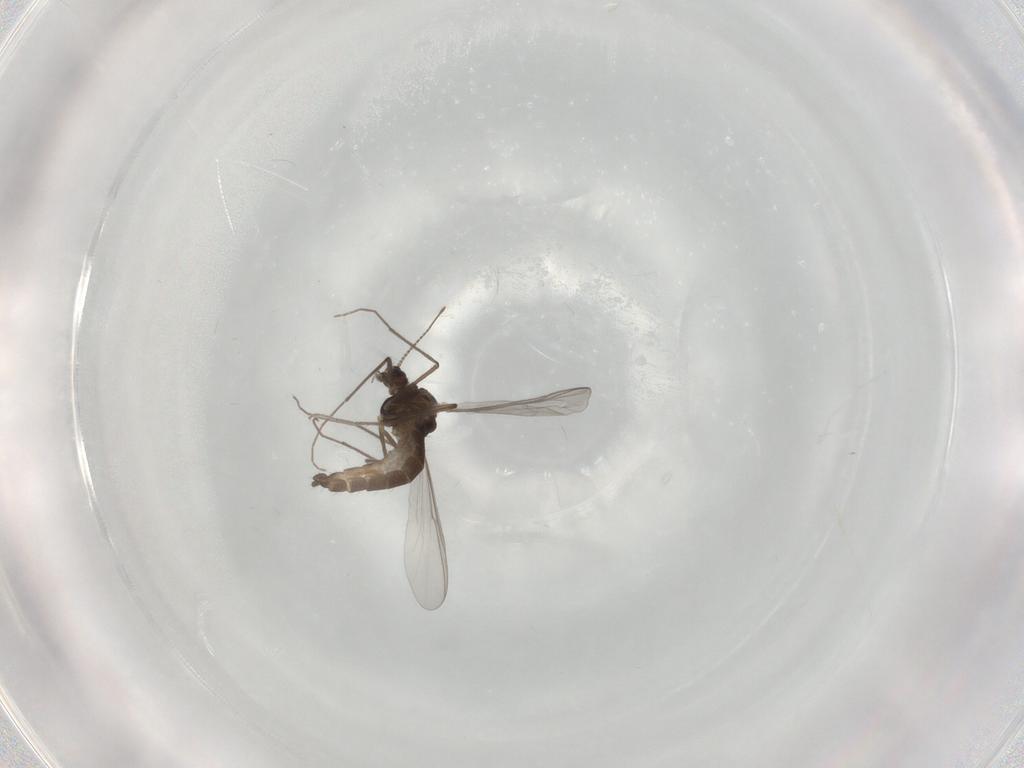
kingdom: Animalia
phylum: Arthropoda
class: Insecta
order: Diptera
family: Chironomidae
